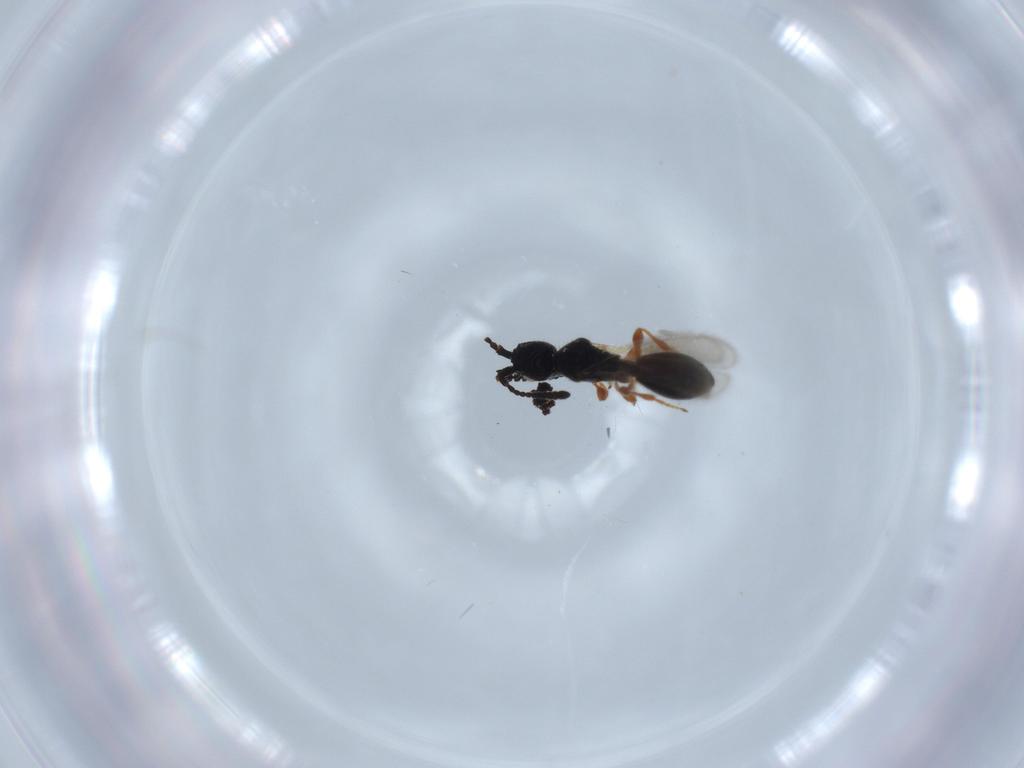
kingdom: Animalia
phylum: Arthropoda
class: Insecta
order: Hymenoptera
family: Diapriidae
